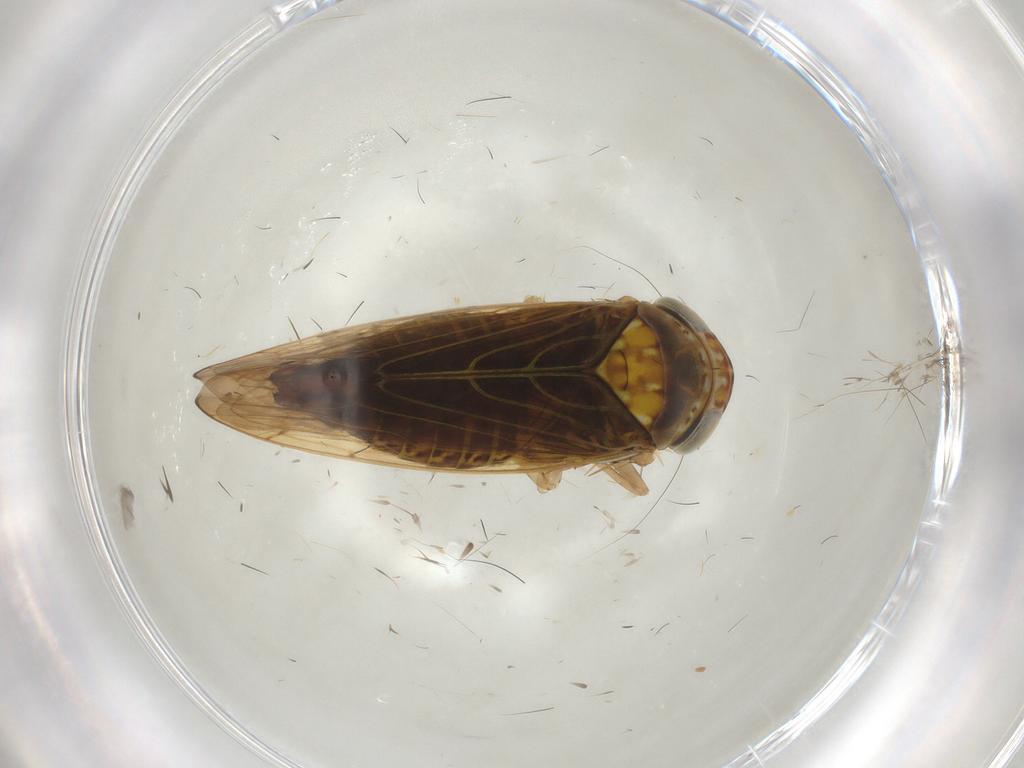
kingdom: Animalia
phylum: Arthropoda
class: Insecta
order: Hemiptera
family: Cicadellidae
